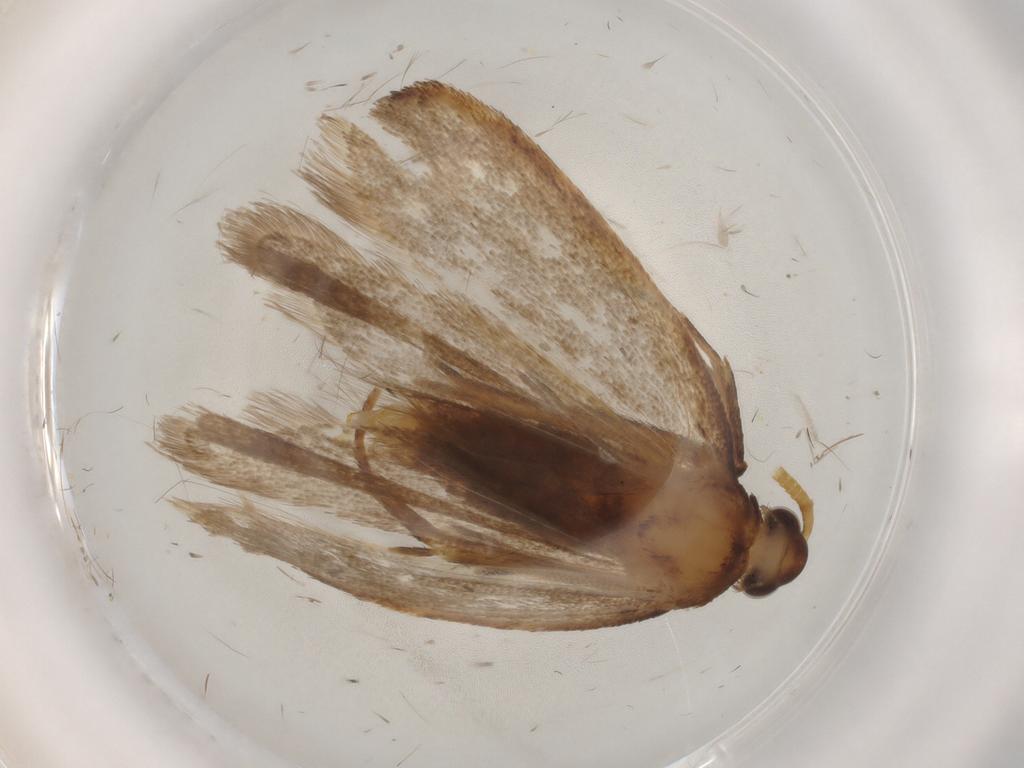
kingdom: Animalia
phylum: Arthropoda
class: Insecta
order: Lepidoptera
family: Lecithoceridae
